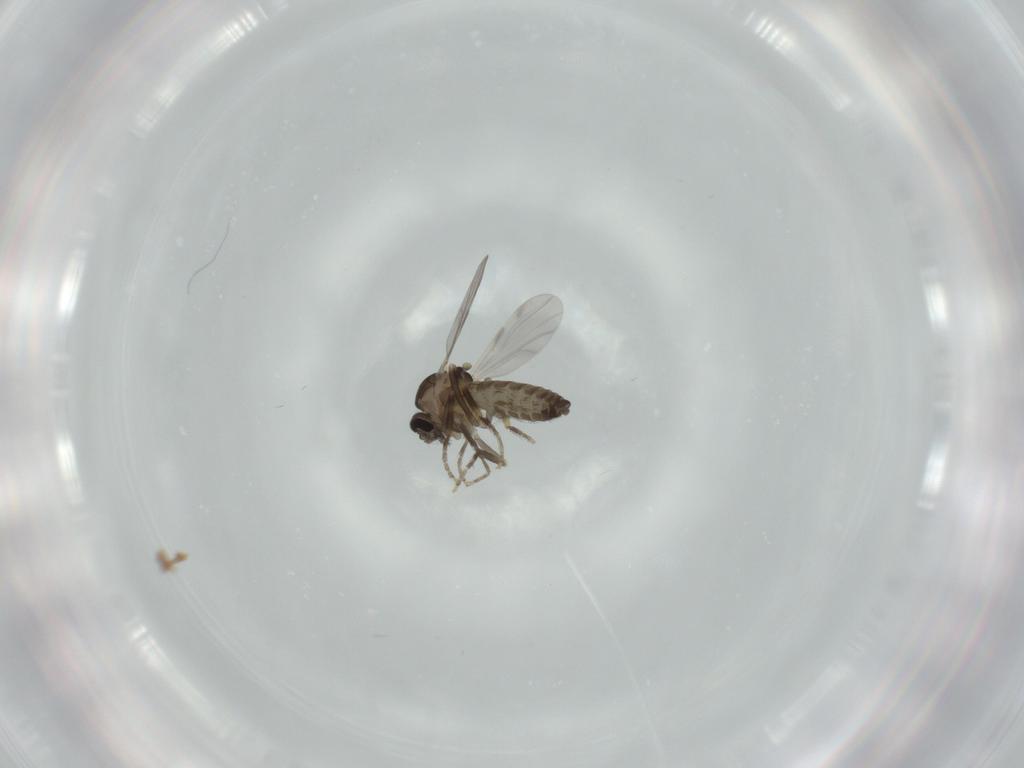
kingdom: Animalia
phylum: Arthropoda
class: Insecta
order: Diptera
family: Ceratopogonidae
